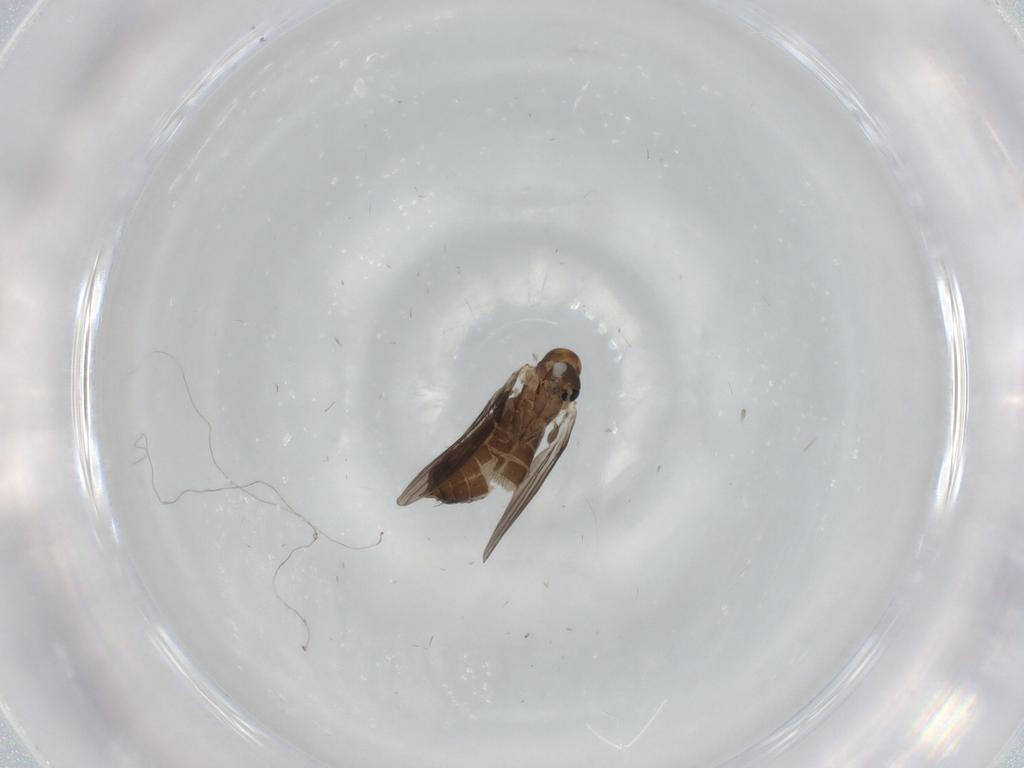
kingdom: Animalia
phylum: Arthropoda
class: Insecta
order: Diptera
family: Psychodidae
